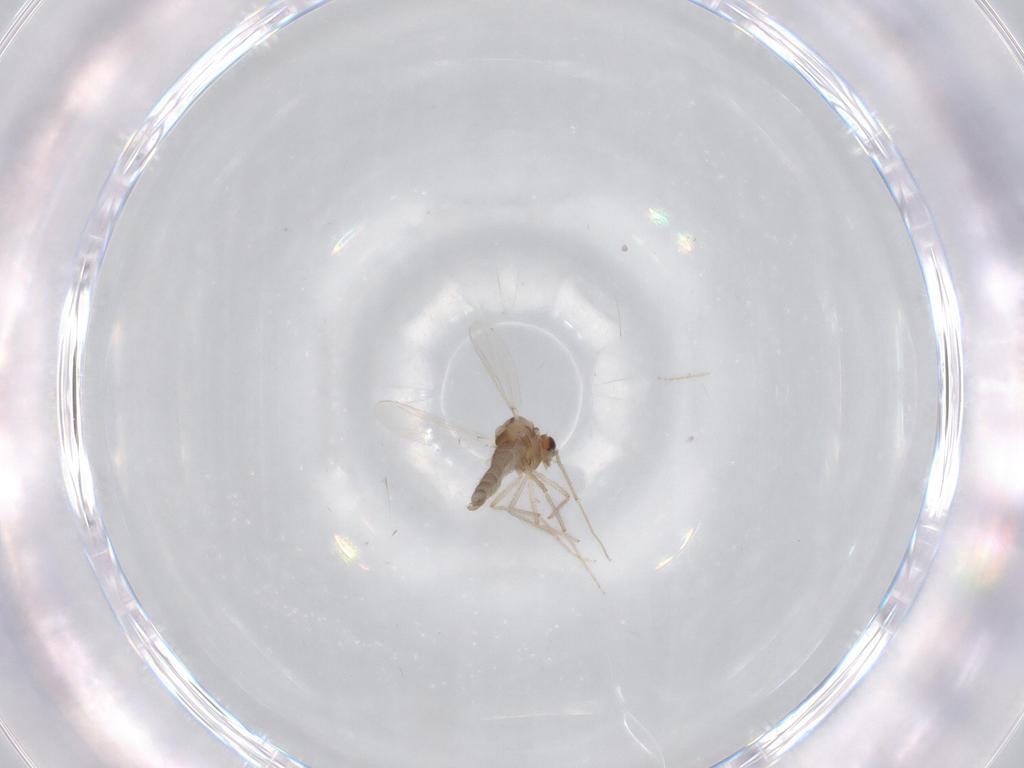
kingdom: Animalia
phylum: Arthropoda
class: Insecta
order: Diptera
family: Chironomidae
